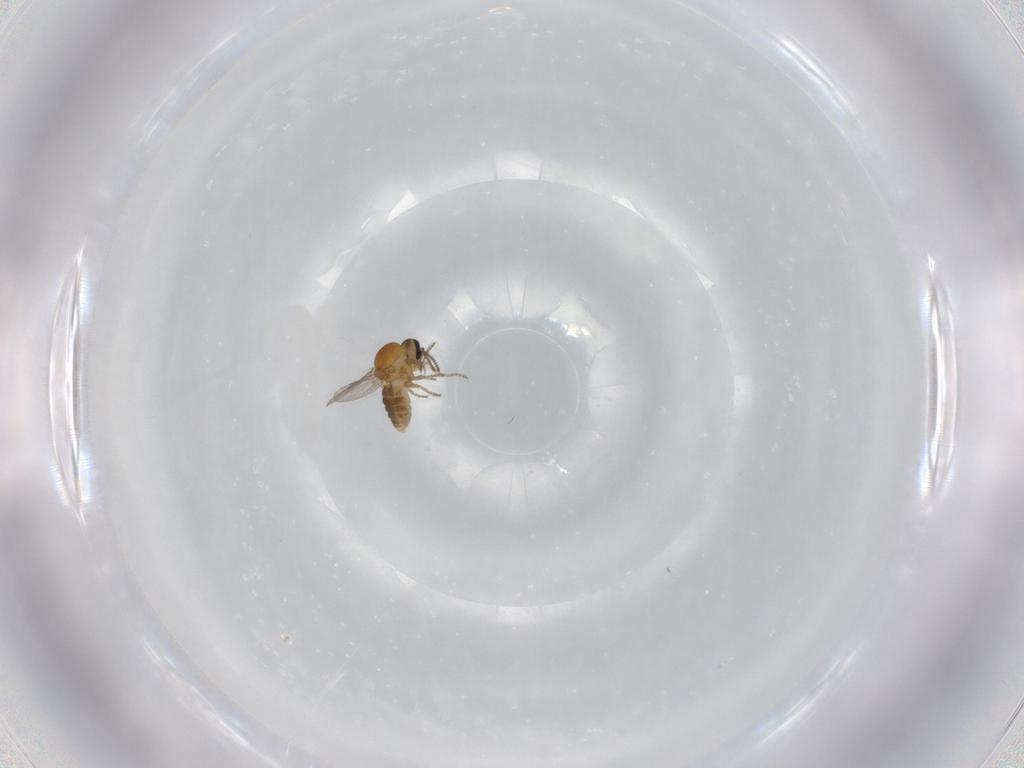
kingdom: Animalia
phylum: Arthropoda
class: Insecta
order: Diptera
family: Ceratopogonidae
